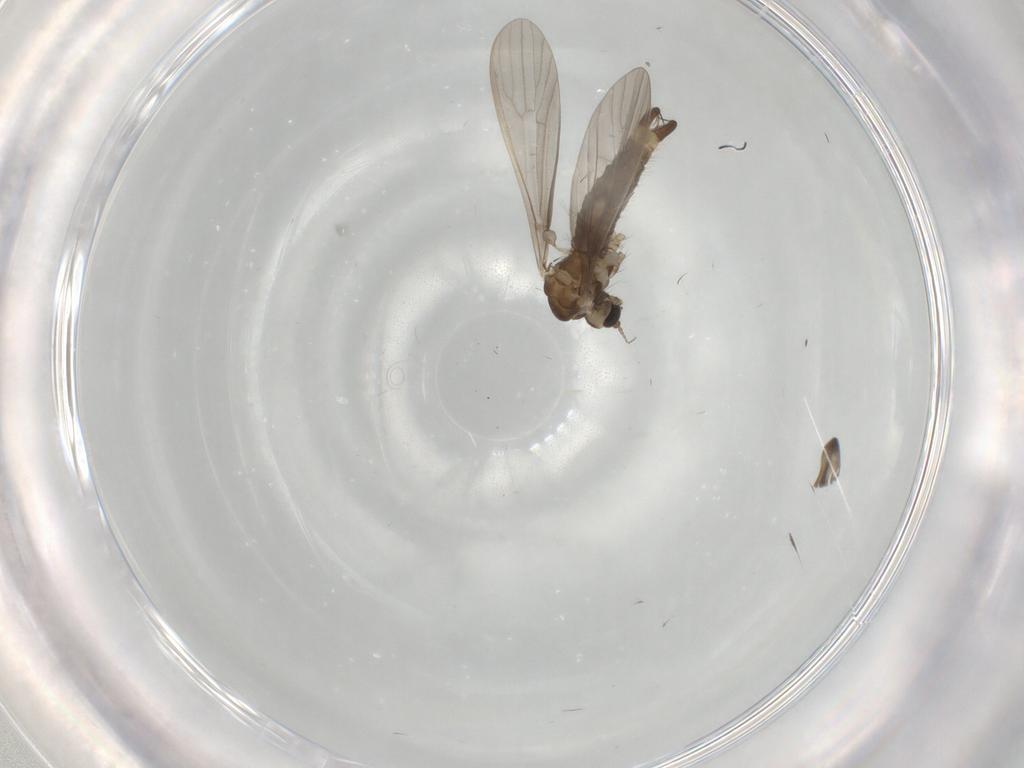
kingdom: Animalia
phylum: Arthropoda
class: Insecta
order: Diptera
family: Limoniidae
